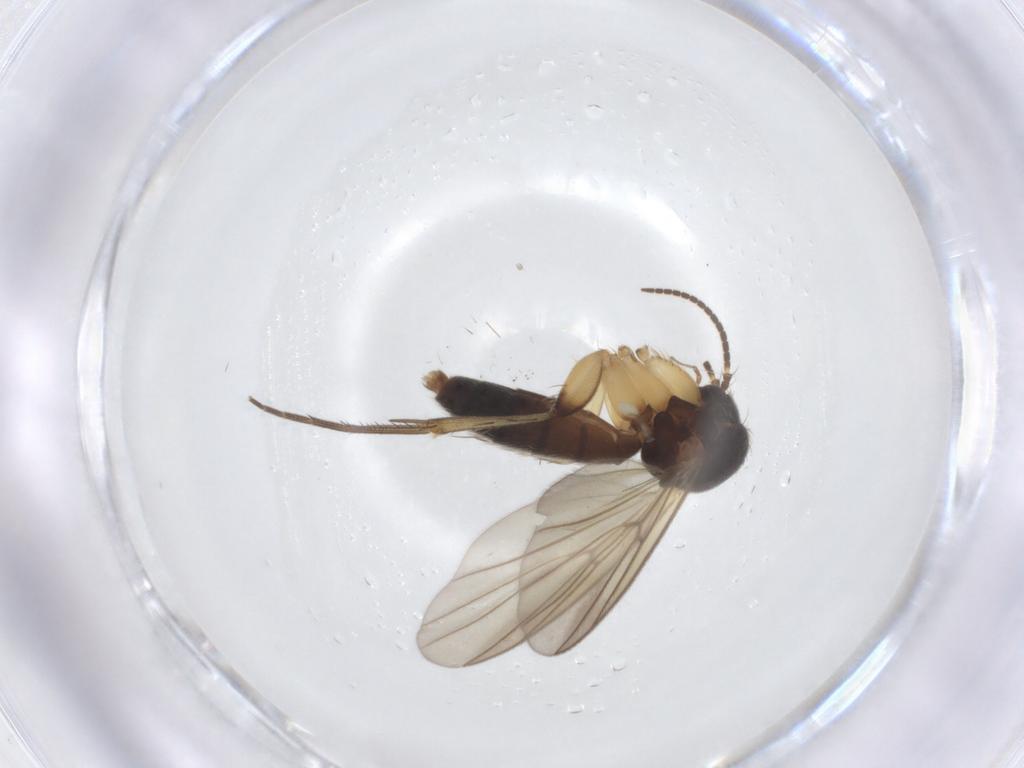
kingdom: Animalia
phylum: Arthropoda
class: Insecta
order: Diptera
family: Mycetophilidae
